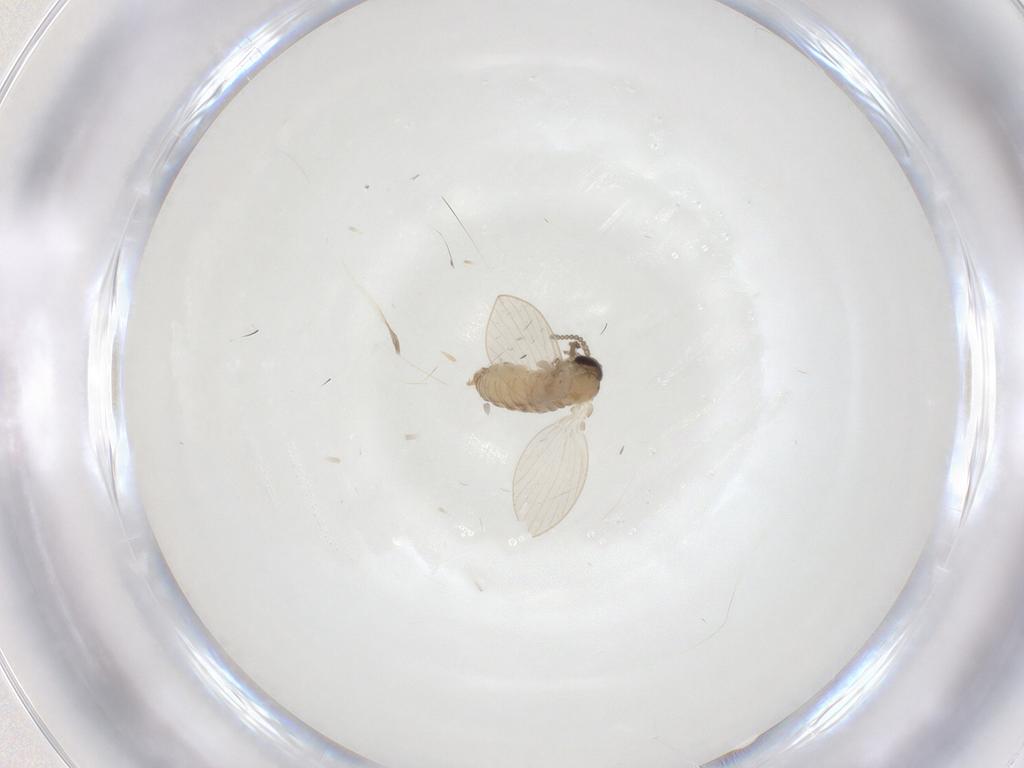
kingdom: Animalia
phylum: Arthropoda
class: Insecta
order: Diptera
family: Psychodidae
